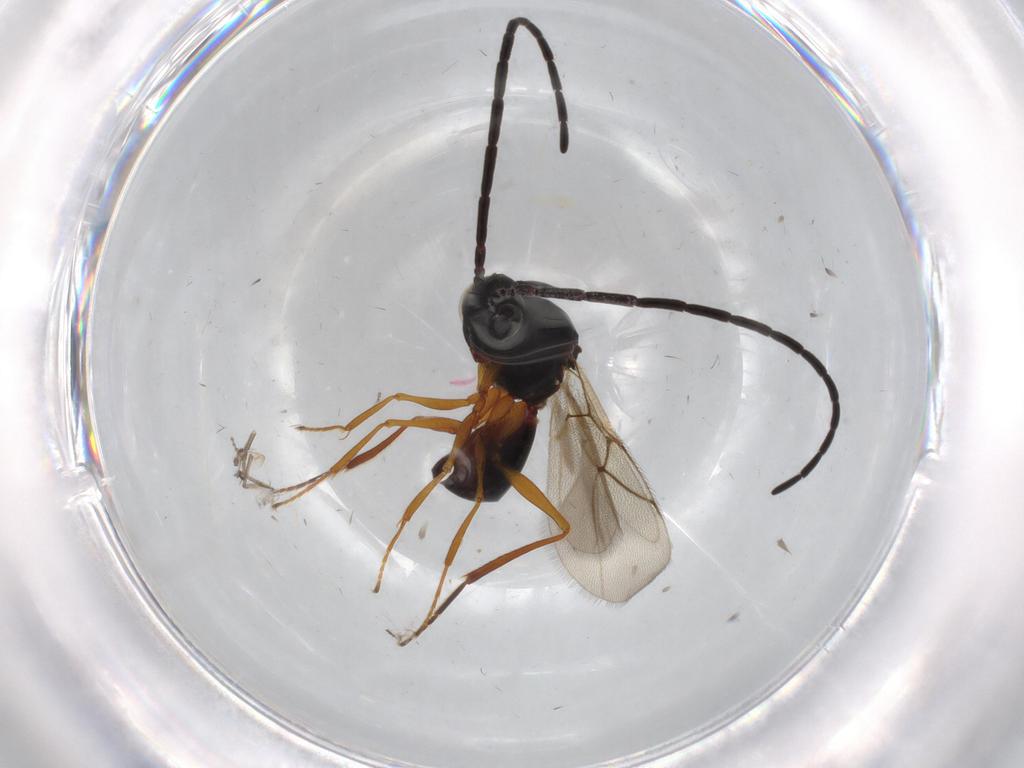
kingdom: Animalia
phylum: Arthropoda
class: Insecta
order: Hymenoptera
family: Figitidae
